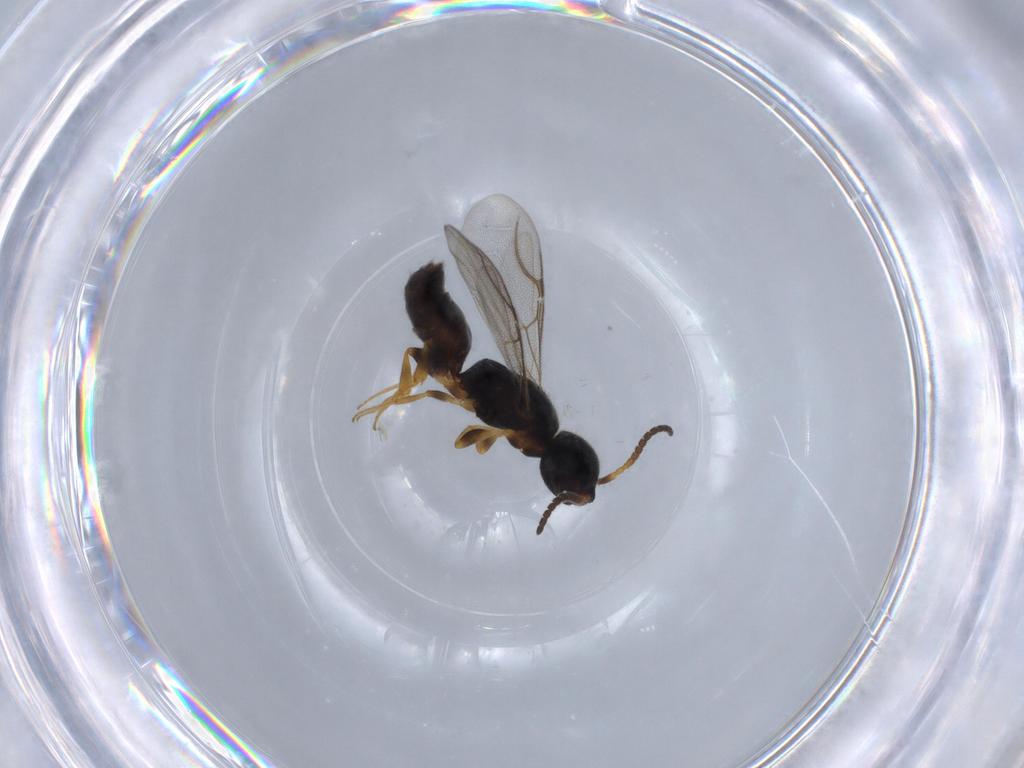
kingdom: Animalia
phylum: Arthropoda
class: Insecta
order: Hymenoptera
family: Bethylidae
